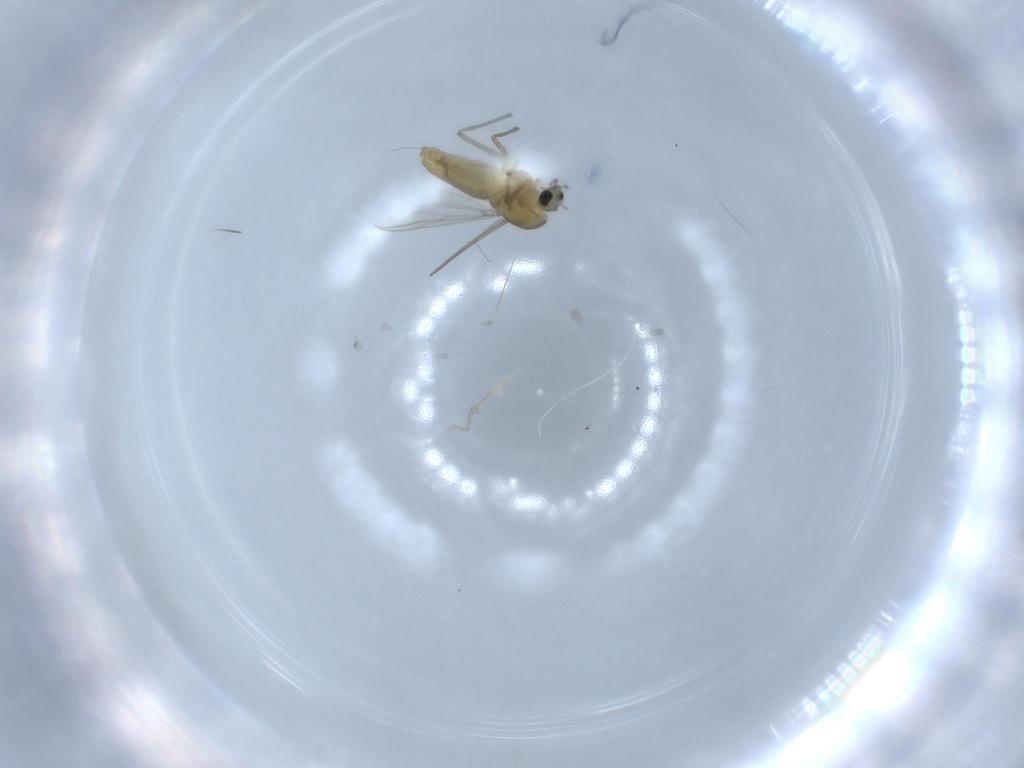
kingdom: Animalia
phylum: Arthropoda
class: Insecta
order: Diptera
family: Chironomidae
